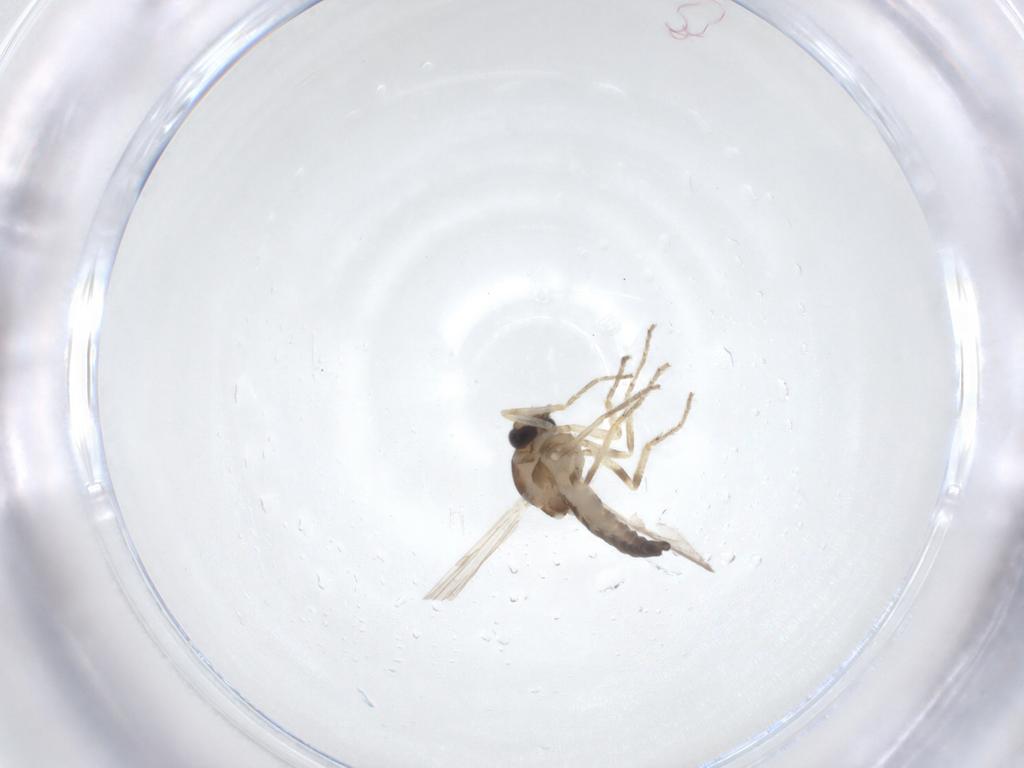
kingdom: Animalia
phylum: Arthropoda
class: Insecta
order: Diptera
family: Ceratopogonidae
